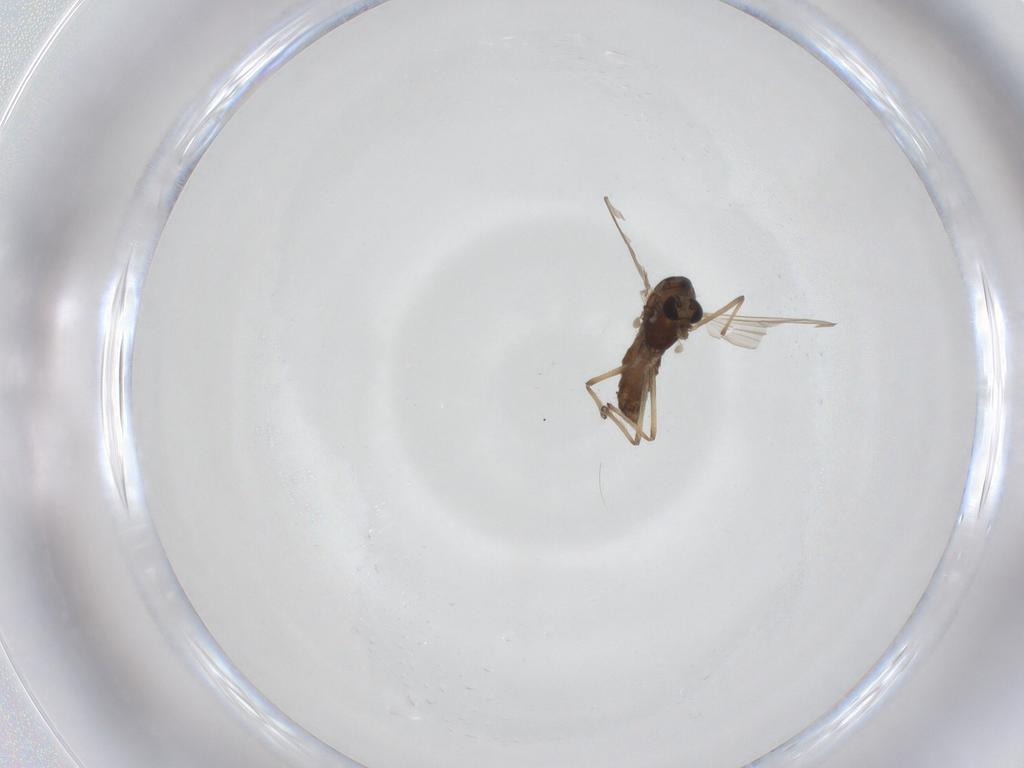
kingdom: Animalia
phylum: Arthropoda
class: Insecta
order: Diptera
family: Chironomidae
